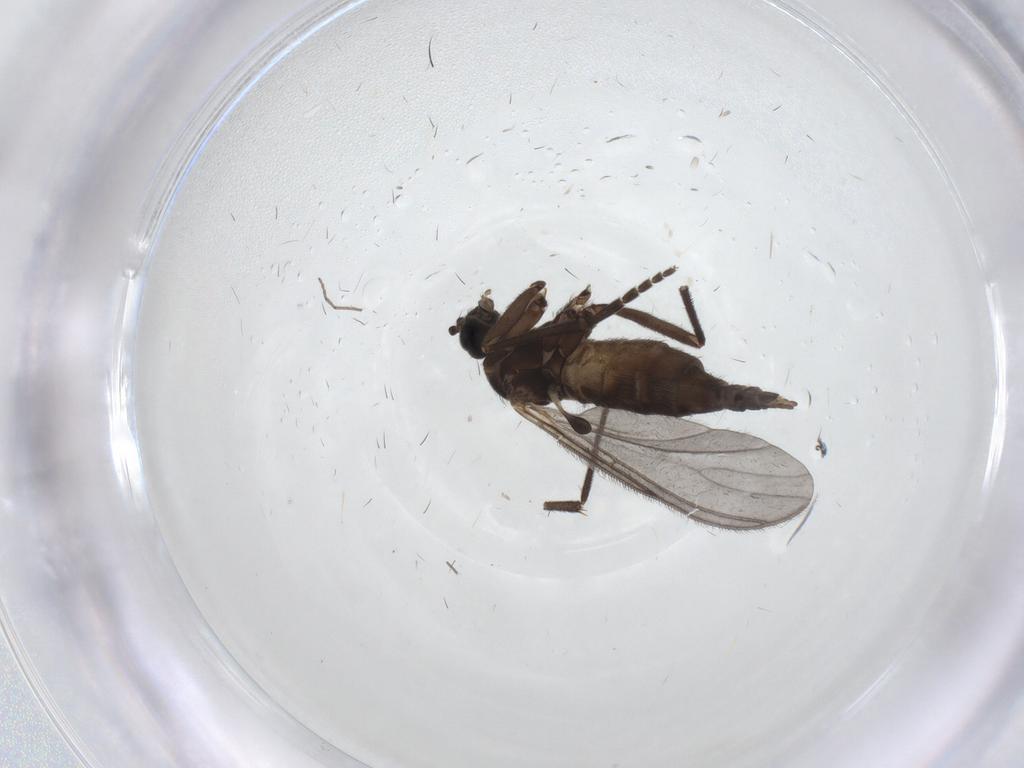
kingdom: Animalia
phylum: Arthropoda
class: Insecta
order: Diptera
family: Sciaridae
